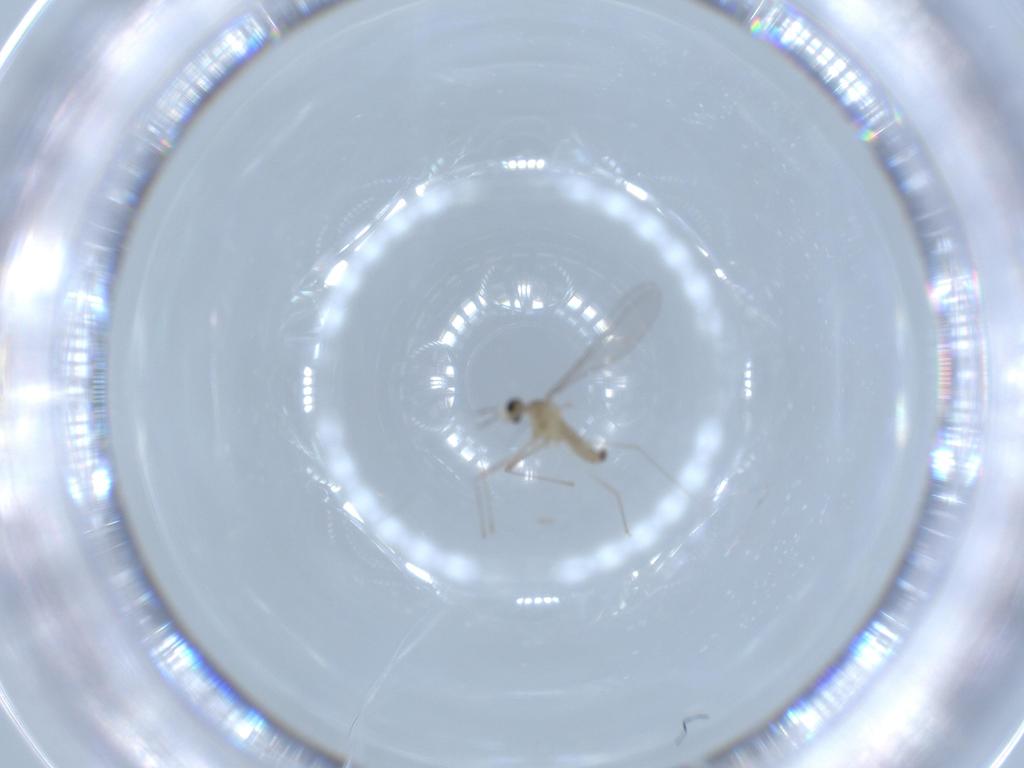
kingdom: Animalia
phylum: Arthropoda
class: Insecta
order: Diptera
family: Cecidomyiidae
